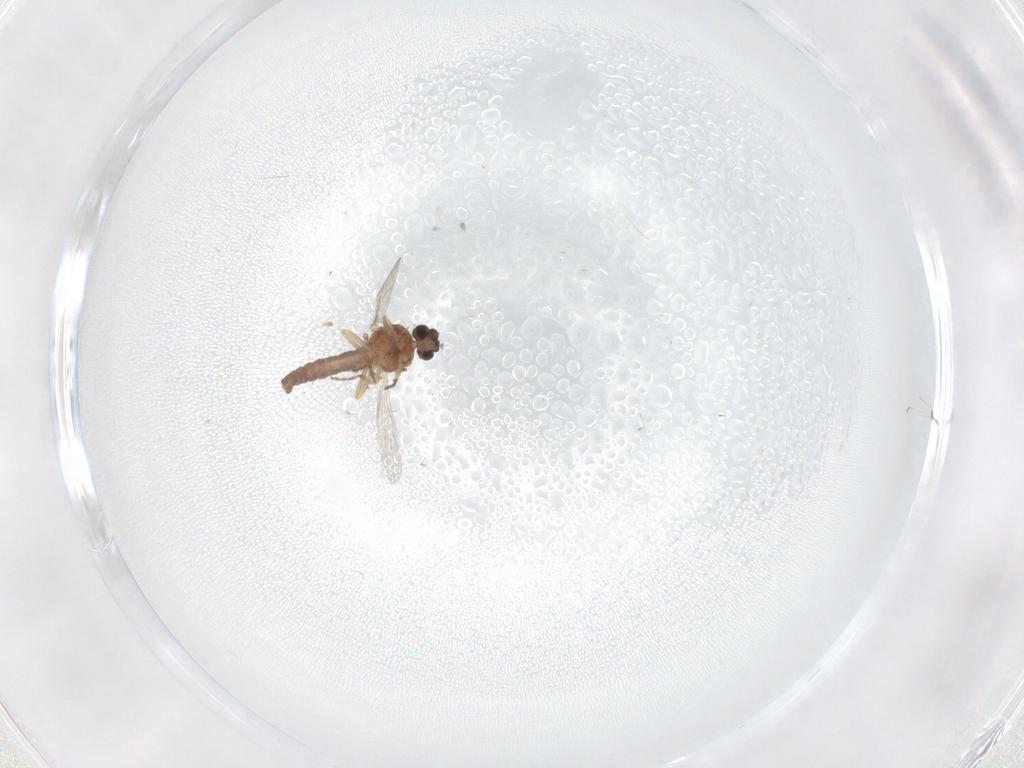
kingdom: Animalia
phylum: Arthropoda
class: Insecta
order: Diptera
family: Ceratopogonidae
